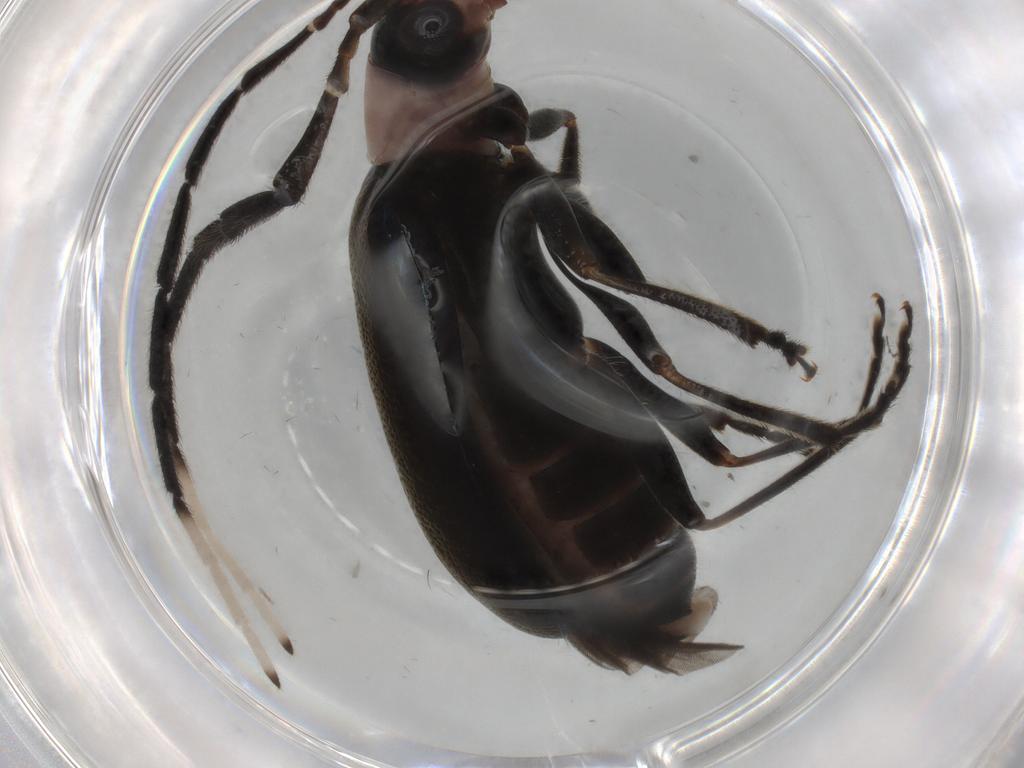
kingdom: Animalia
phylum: Arthropoda
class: Insecta
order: Coleoptera
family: Chrysomelidae
